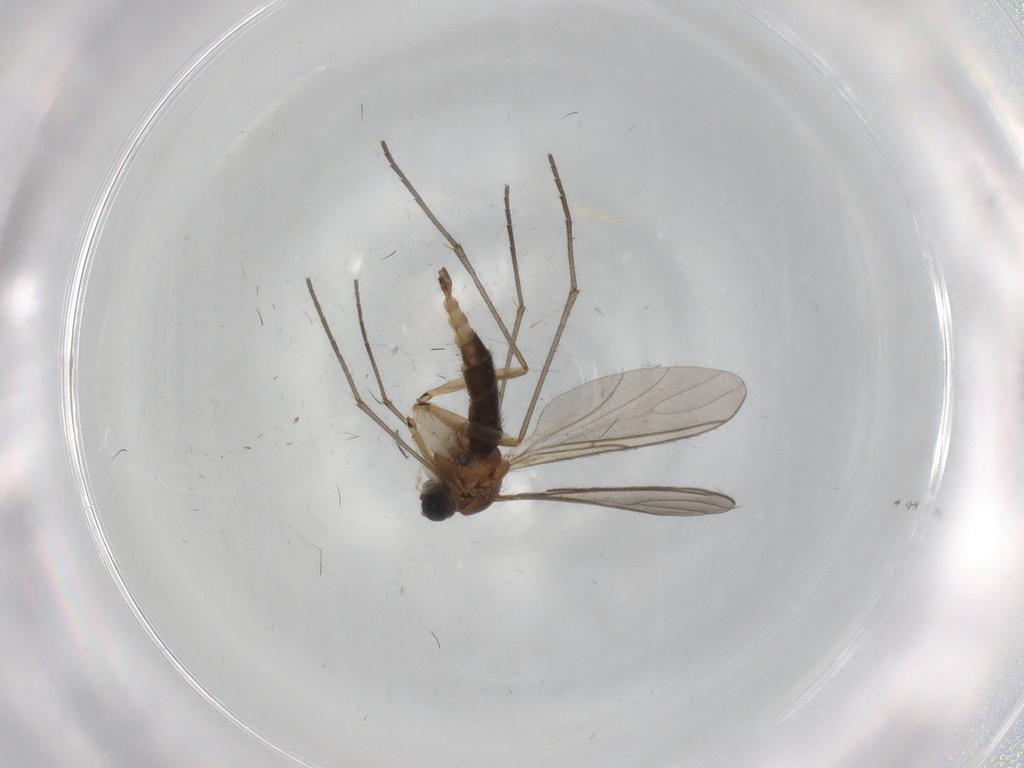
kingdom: Animalia
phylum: Arthropoda
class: Insecta
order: Diptera
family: Sciaridae
